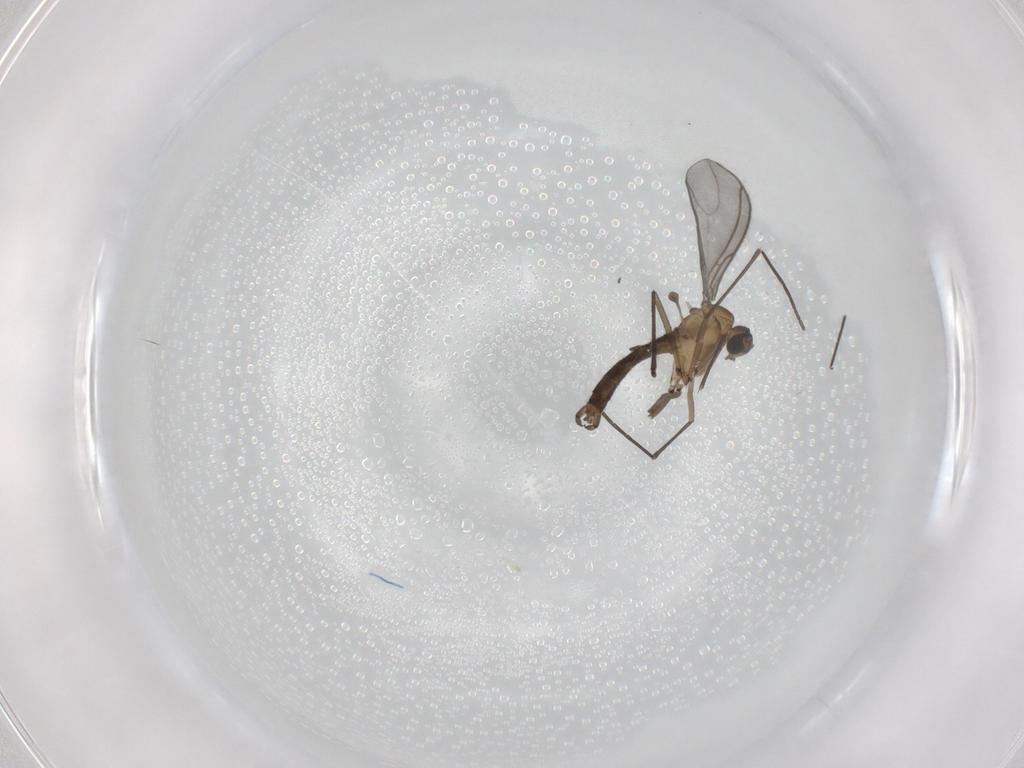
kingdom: Animalia
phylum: Arthropoda
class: Insecta
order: Diptera
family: Sciaridae
